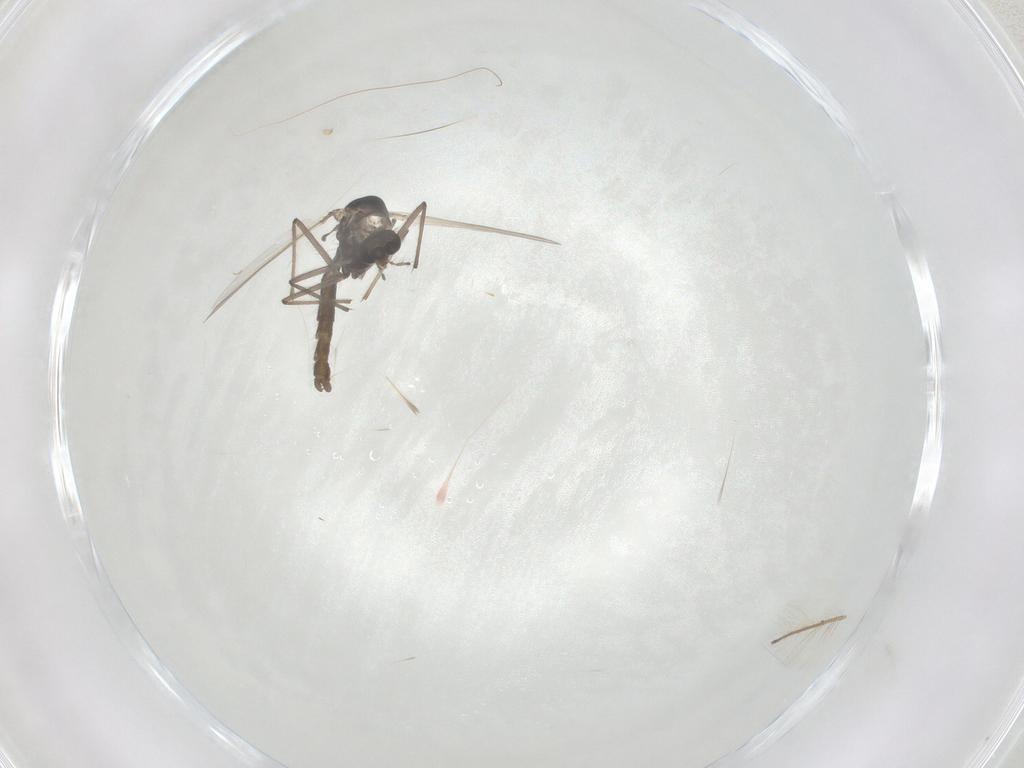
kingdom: Animalia
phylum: Arthropoda
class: Insecta
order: Diptera
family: Chironomidae
